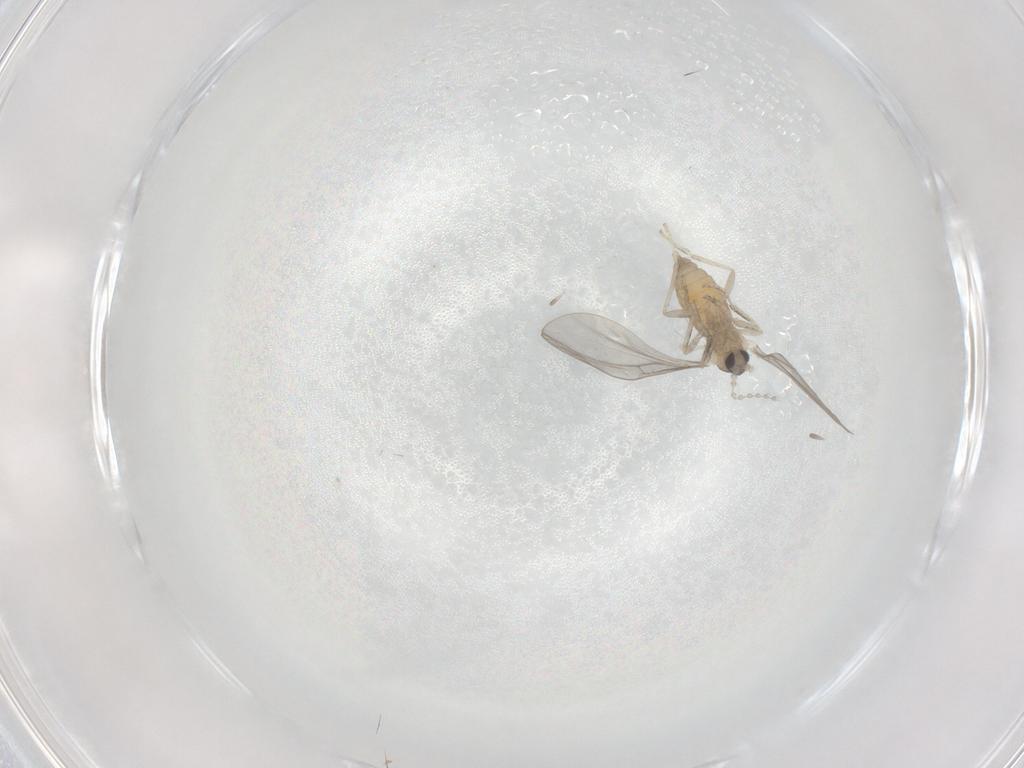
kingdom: Animalia
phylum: Arthropoda
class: Insecta
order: Diptera
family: Cecidomyiidae
